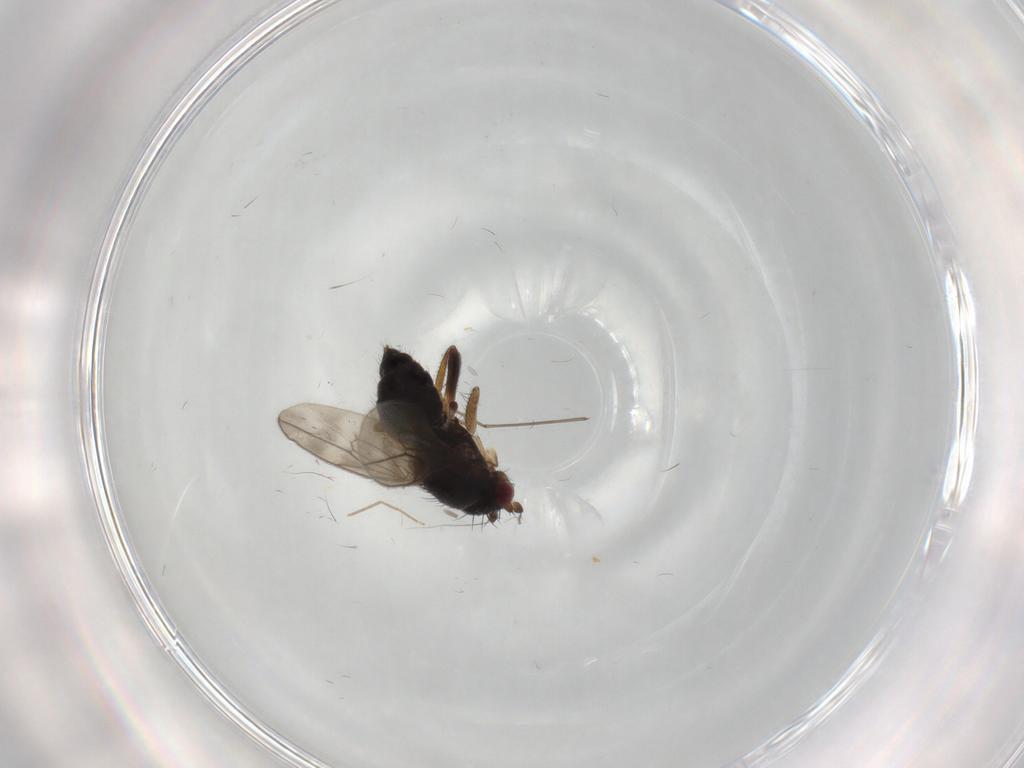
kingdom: Animalia
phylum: Arthropoda
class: Insecta
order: Diptera
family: Sphaeroceridae
